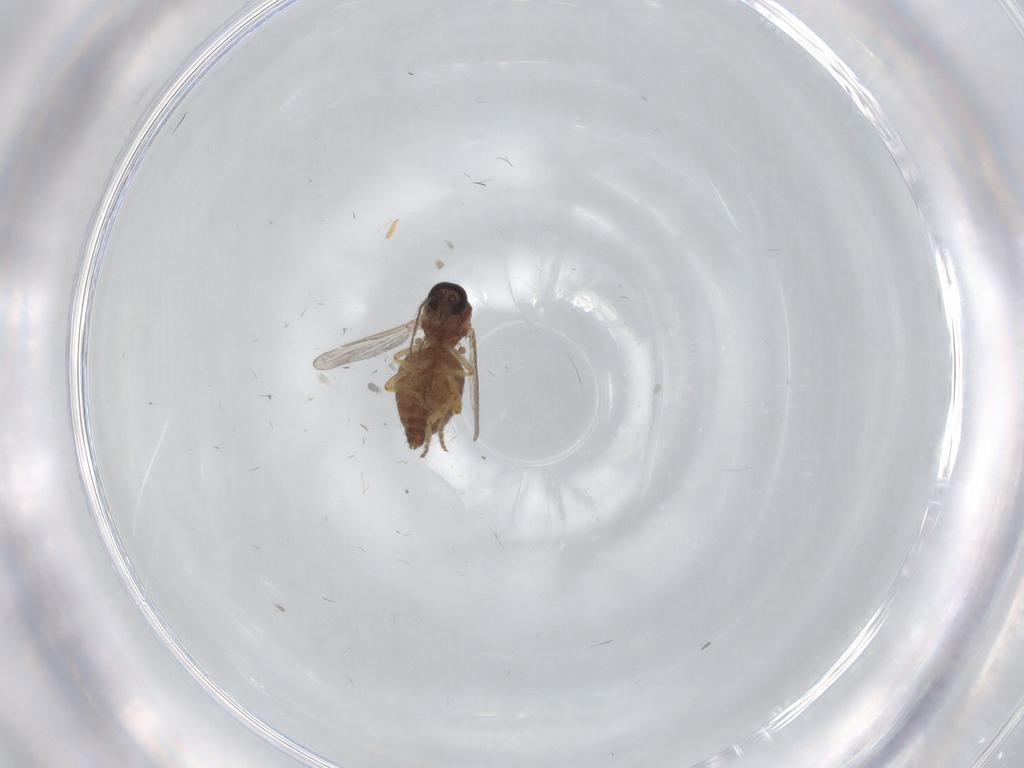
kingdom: Animalia
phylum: Arthropoda
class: Insecta
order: Diptera
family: Ceratopogonidae
